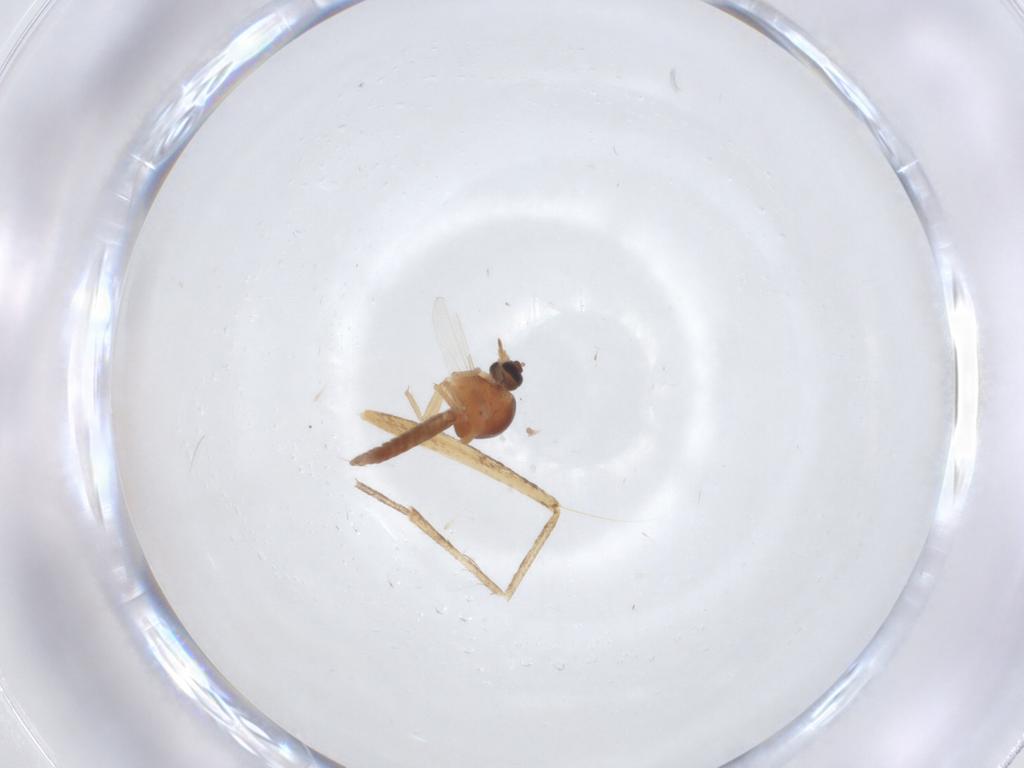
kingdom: Animalia
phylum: Arthropoda
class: Insecta
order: Diptera
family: Ceratopogonidae
